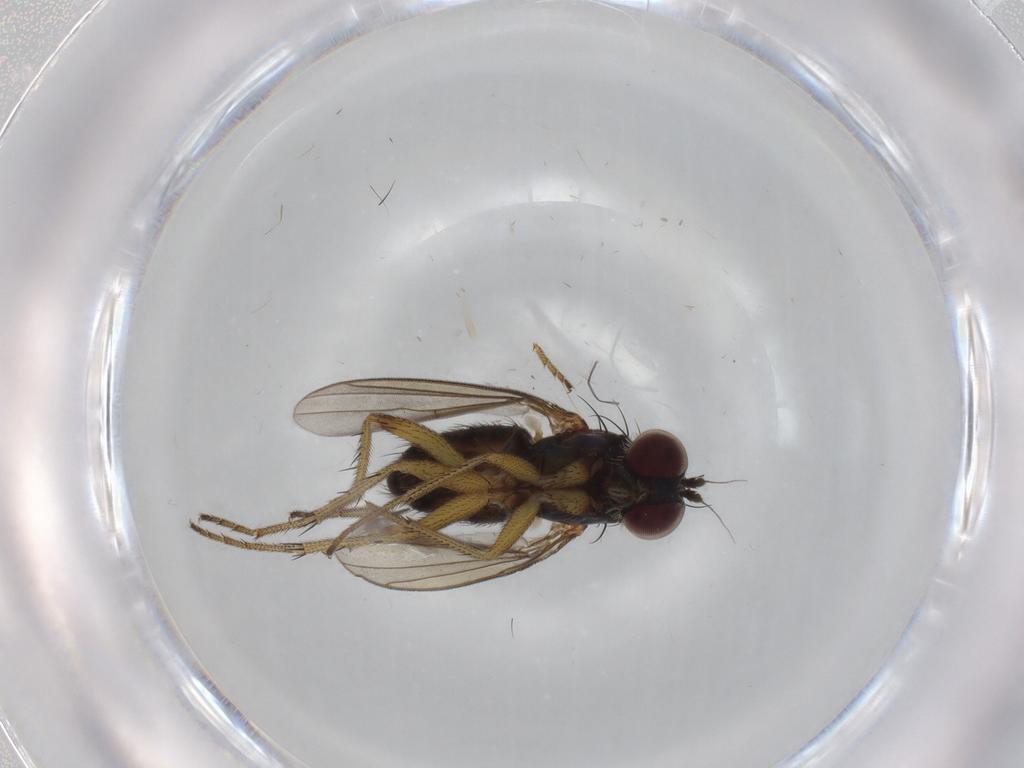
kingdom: Animalia
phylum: Arthropoda
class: Insecta
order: Diptera
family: Dolichopodidae
